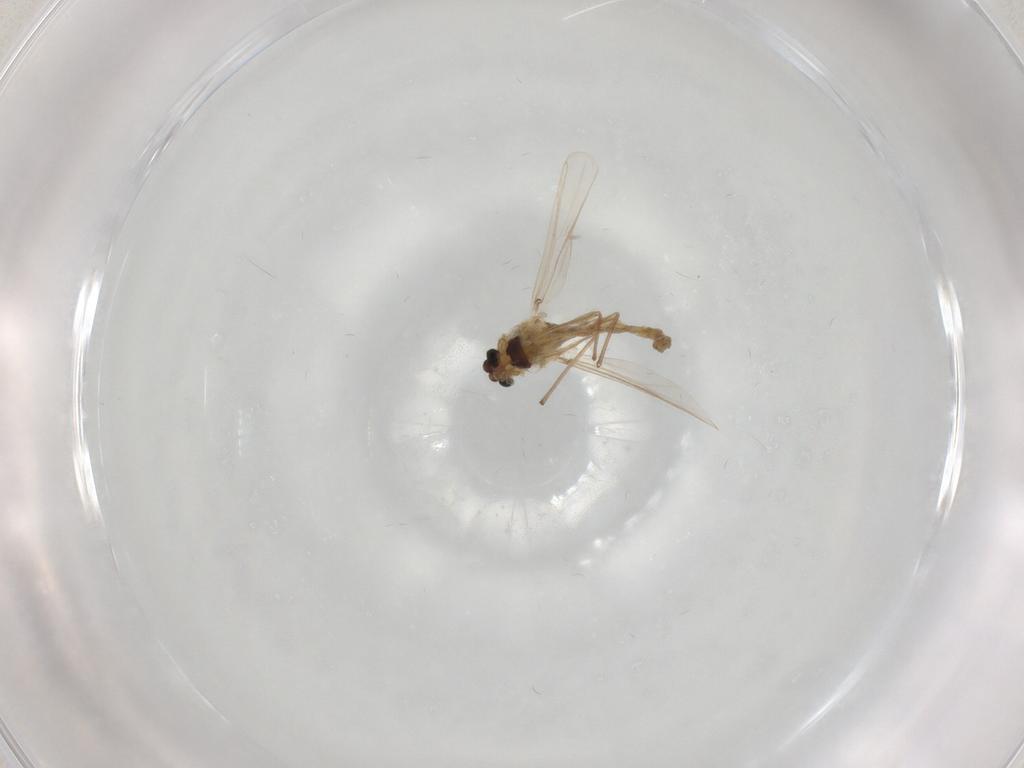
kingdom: Animalia
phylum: Arthropoda
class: Insecta
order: Diptera
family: Chironomidae
